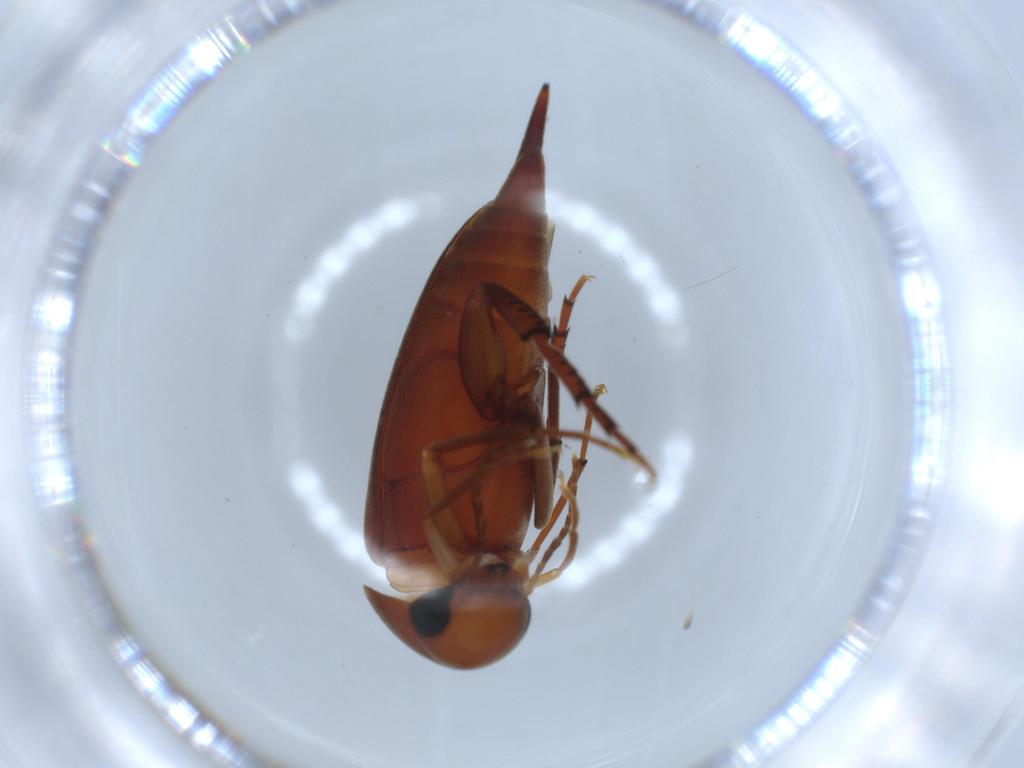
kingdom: Animalia
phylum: Arthropoda
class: Insecta
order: Coleoptera
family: Mordellidae
